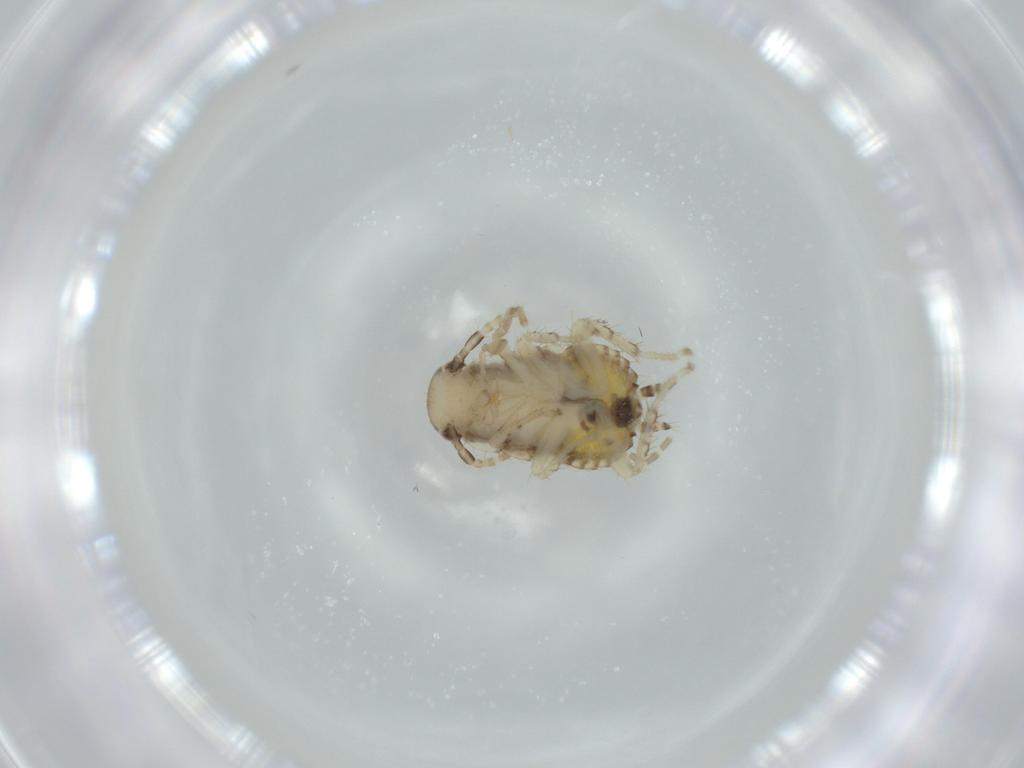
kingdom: Animalia
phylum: Arthropoda
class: Insecta
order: Blattodea
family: Ectobiidae
